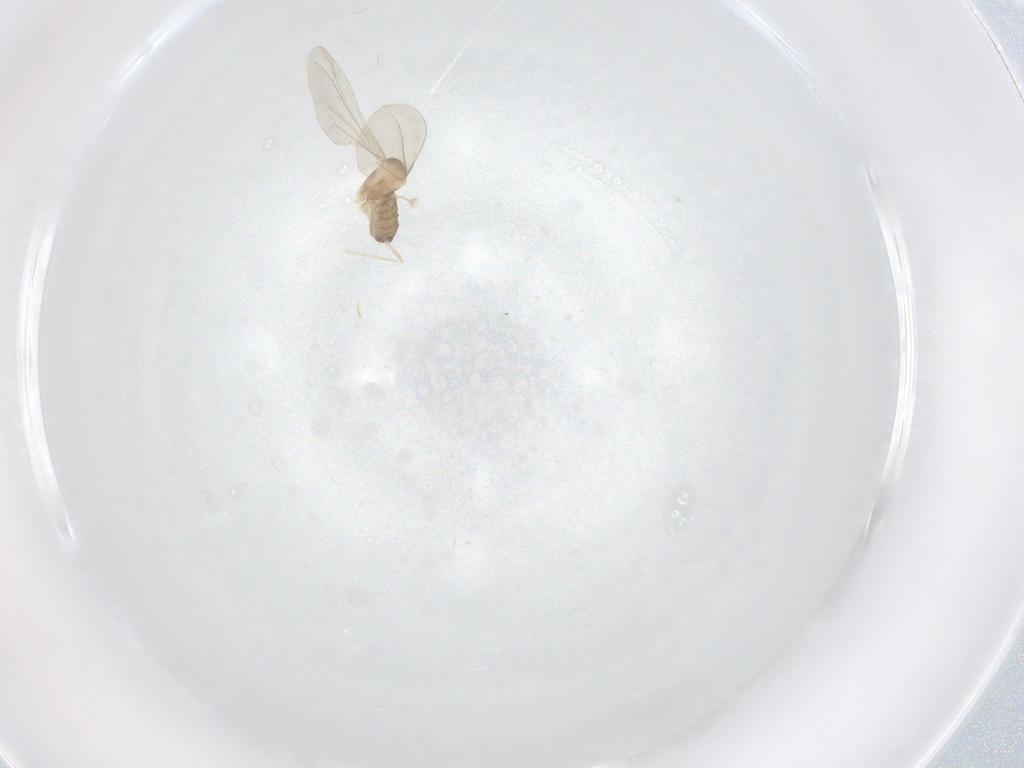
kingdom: Animalia
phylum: Arthropoda
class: Insecta
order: Diptera
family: Cecidomyiidae
